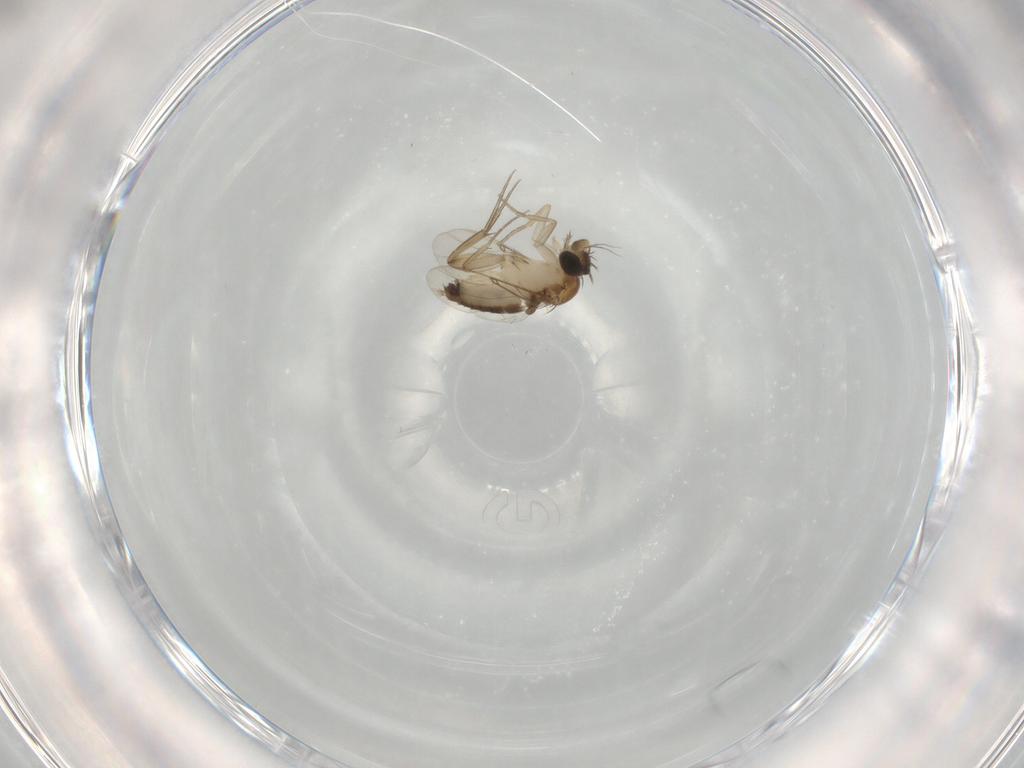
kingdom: Animalia
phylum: Arthropoda
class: Insecta
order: Diptera
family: Phoridae
